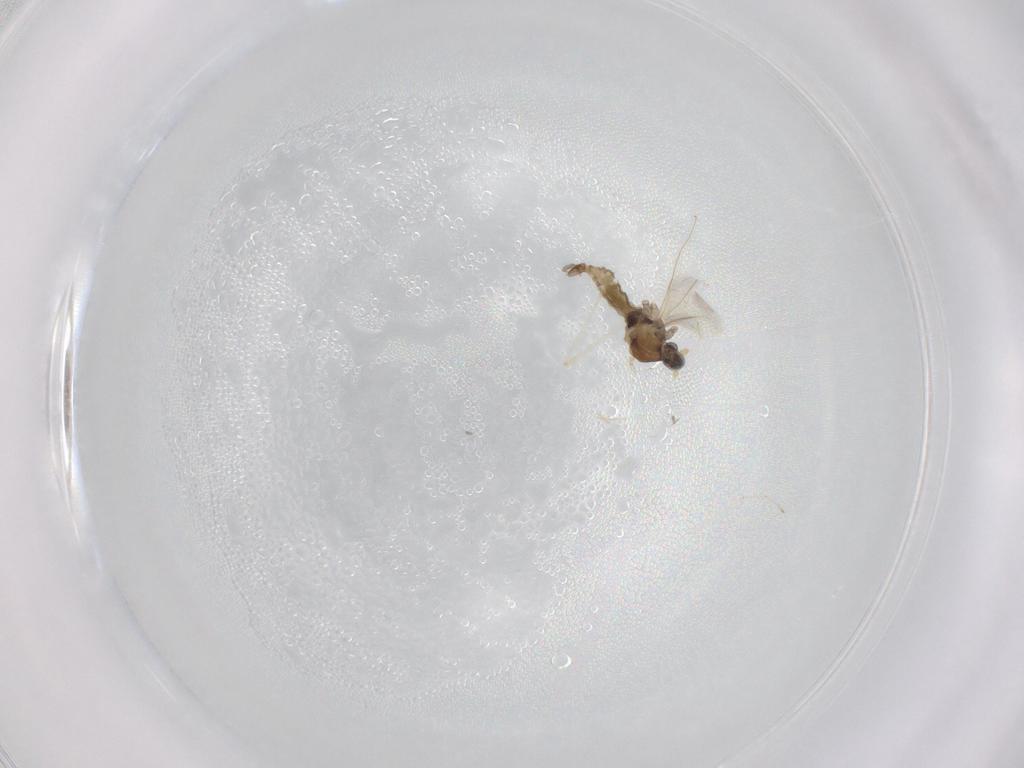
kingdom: Animalia
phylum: Arthropoda
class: Insecta
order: Diptera
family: Cecidomyiidae
